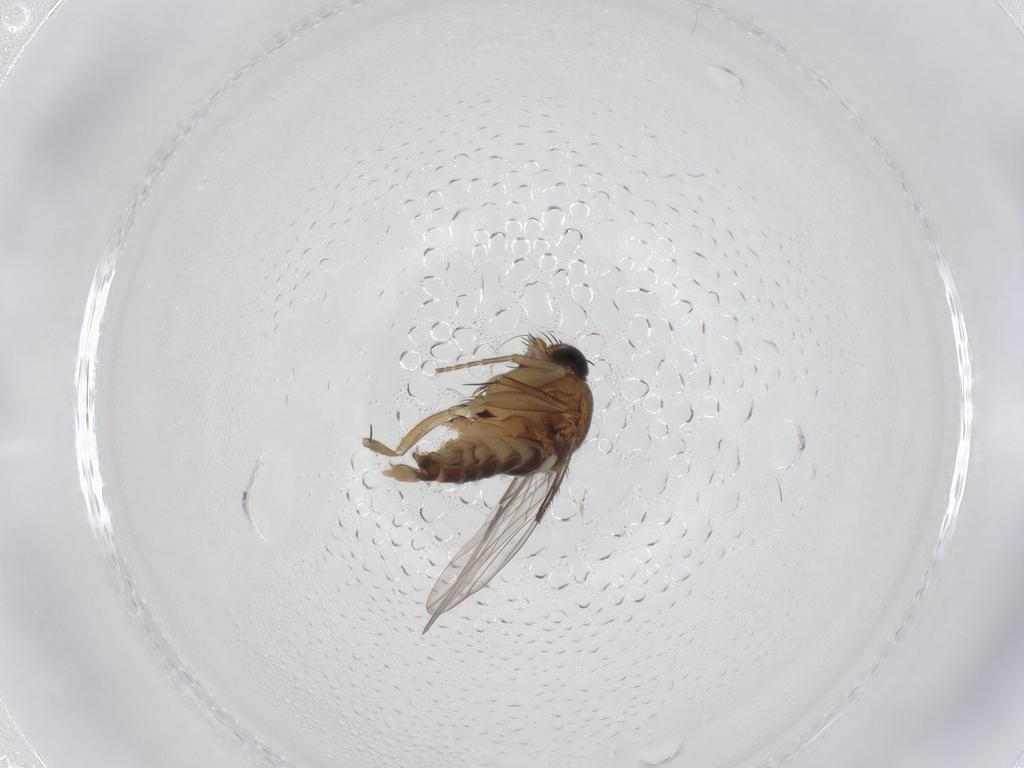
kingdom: Animalia
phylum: Arthropoda
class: Insecta
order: Diptera
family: Phoridae
